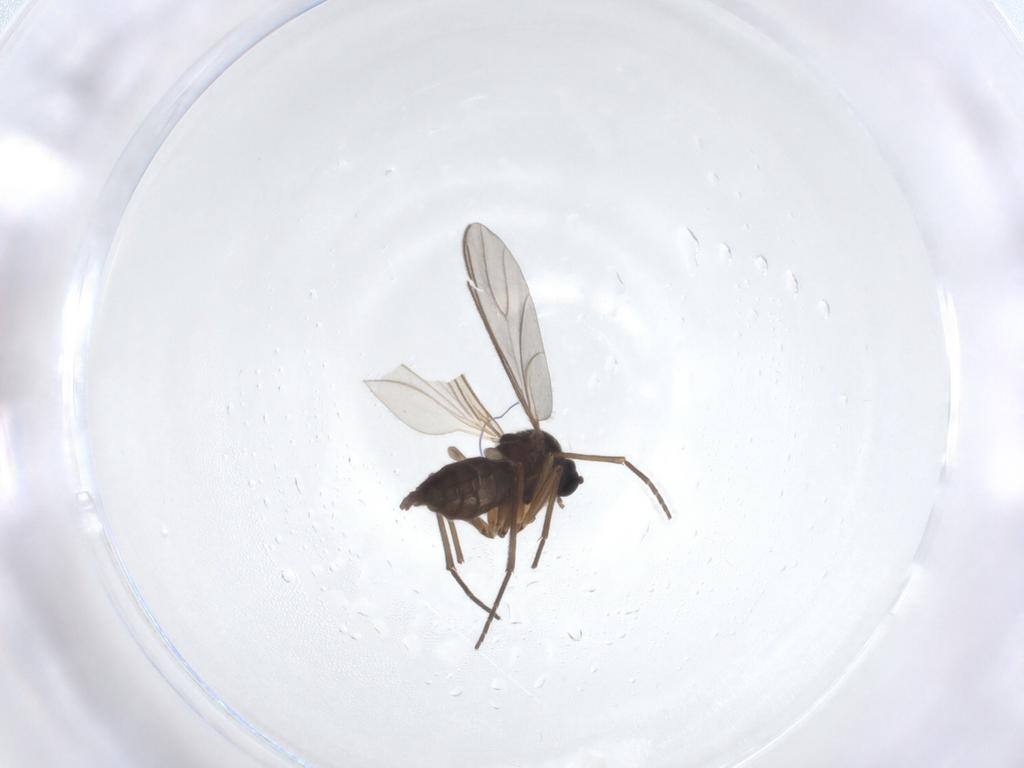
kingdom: Animalia
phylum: Arthropoda
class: Insecta
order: Diptera
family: Sciaridae
